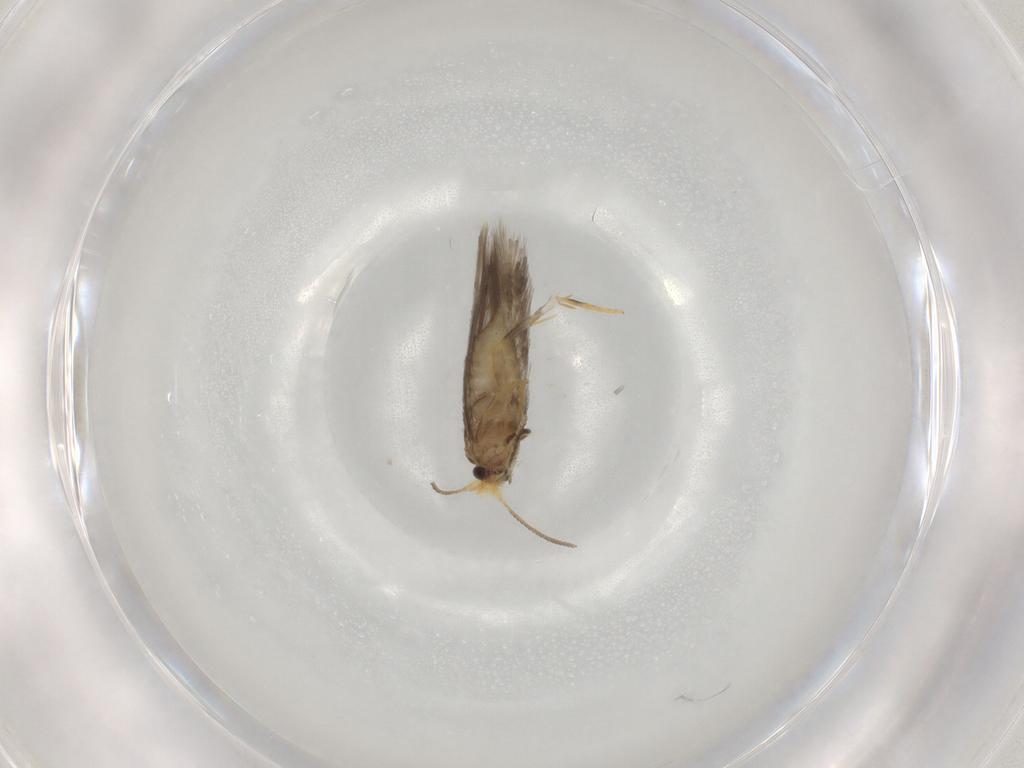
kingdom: Animalia
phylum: Arthropoda
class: Insecta
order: Lepidoptera
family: Nepticulidae
